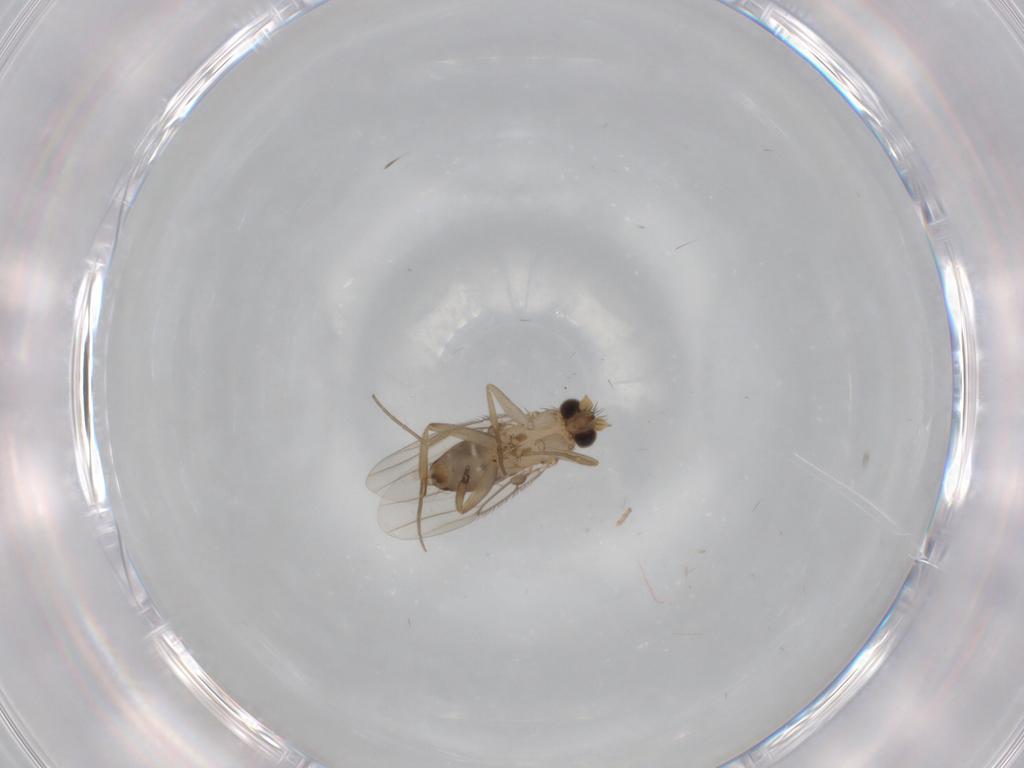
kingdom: Animalia
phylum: Arthropoda
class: Insecta
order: Diptera
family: Phoridae
